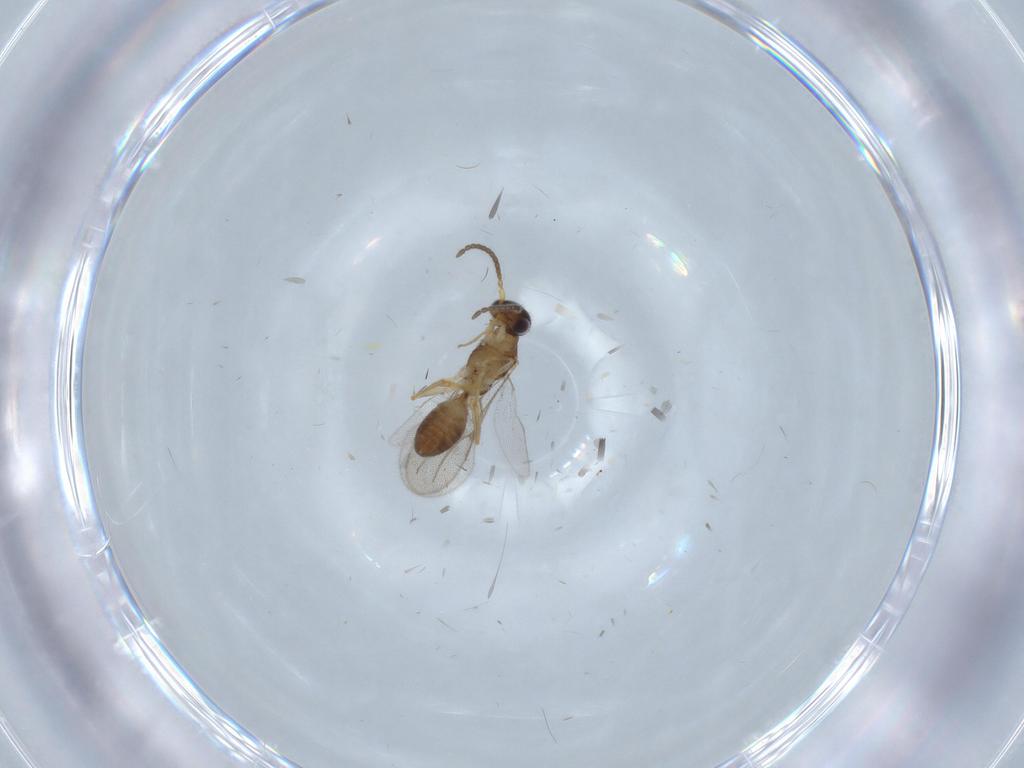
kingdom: Animalia
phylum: Arthropoda
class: Insecta
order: Hymenoptera
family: Bethylidae
